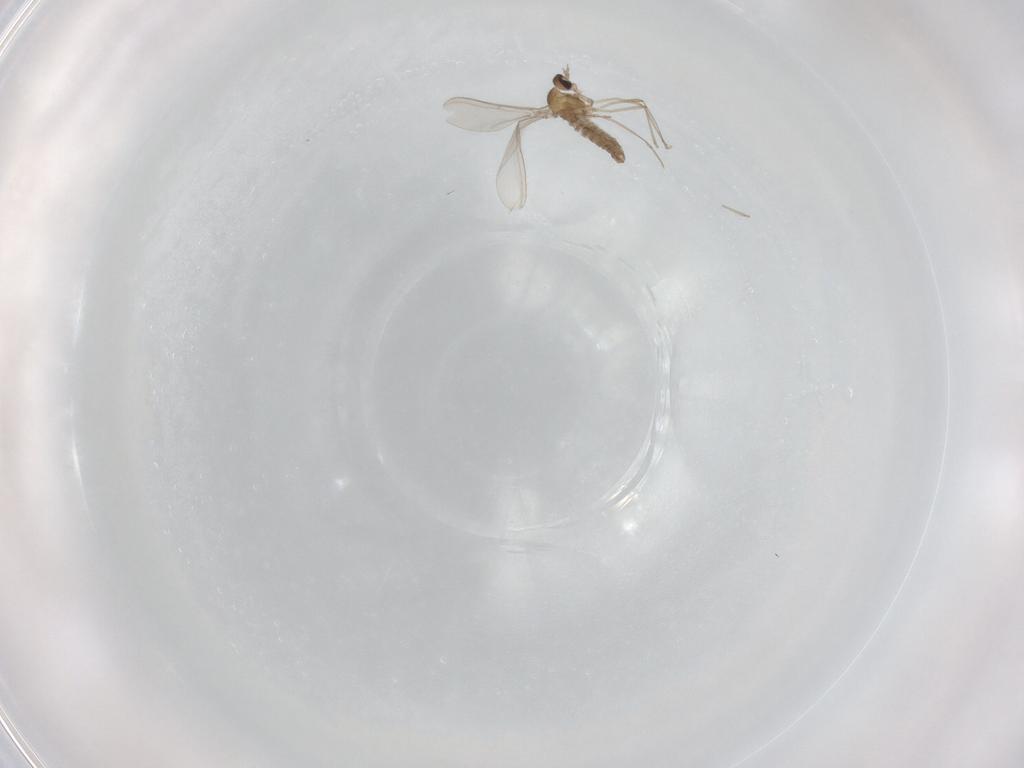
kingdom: Animalia
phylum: Arthropoda
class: Insecta
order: Diptera
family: Cecidomyiidae
